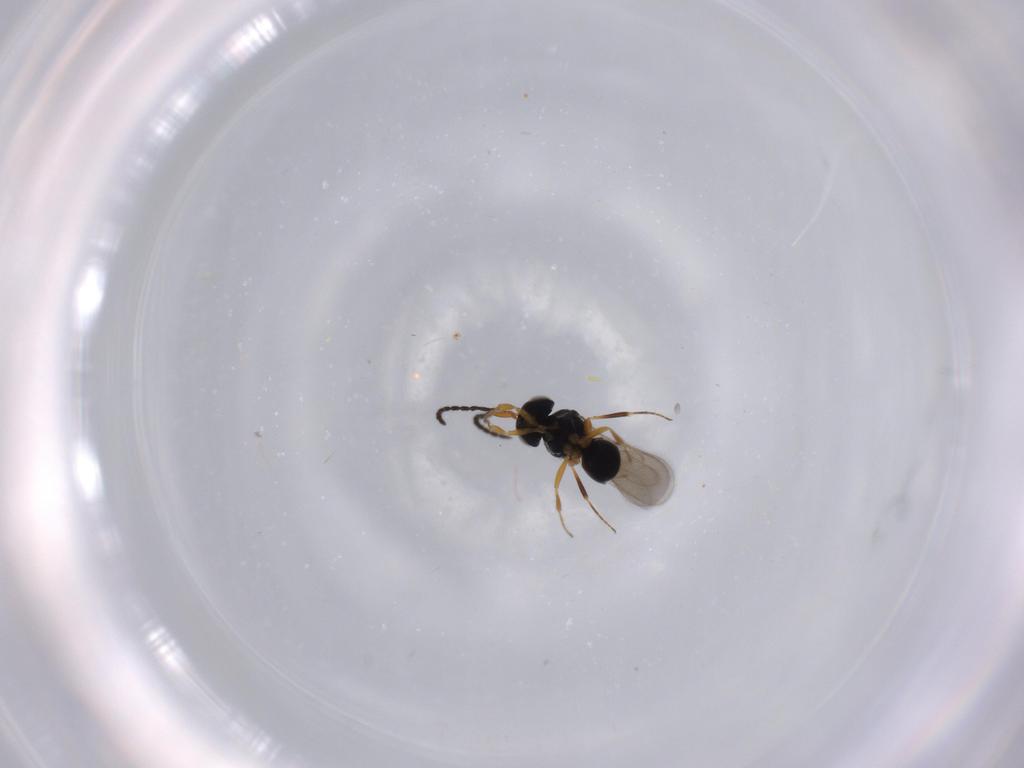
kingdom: Animalia
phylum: Arthropoda
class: Insecta
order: Hymenoptera
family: Scelionidae
